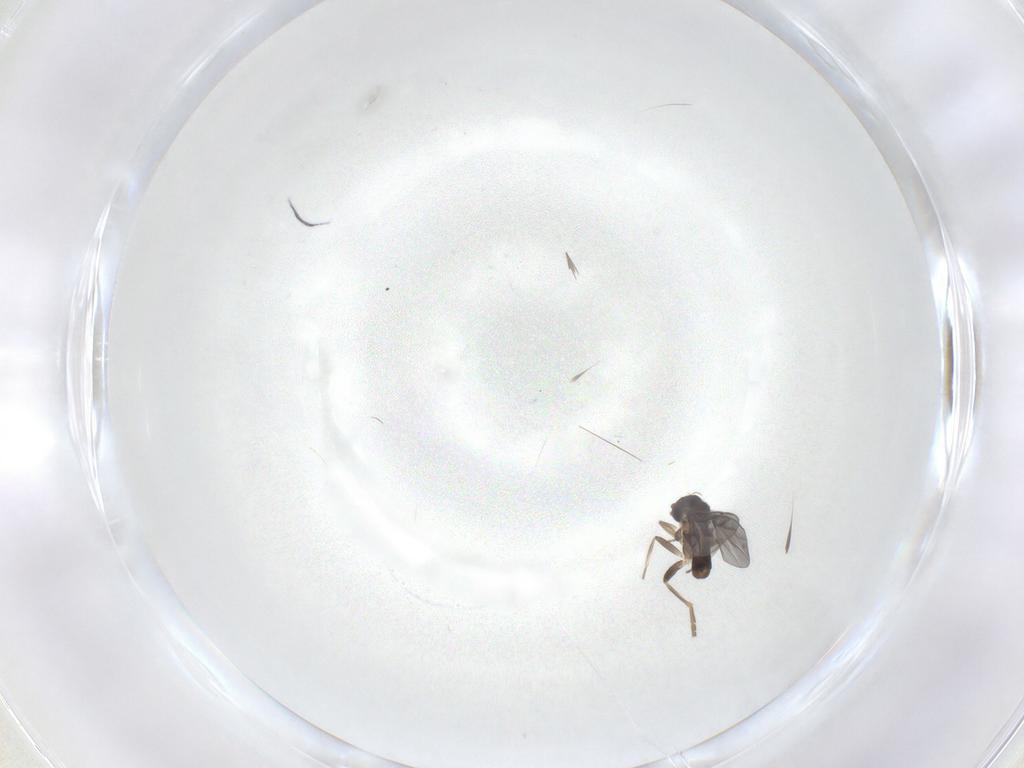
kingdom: Animalia
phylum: Arthropoda
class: Insecta
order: Diptera
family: Phoridae
